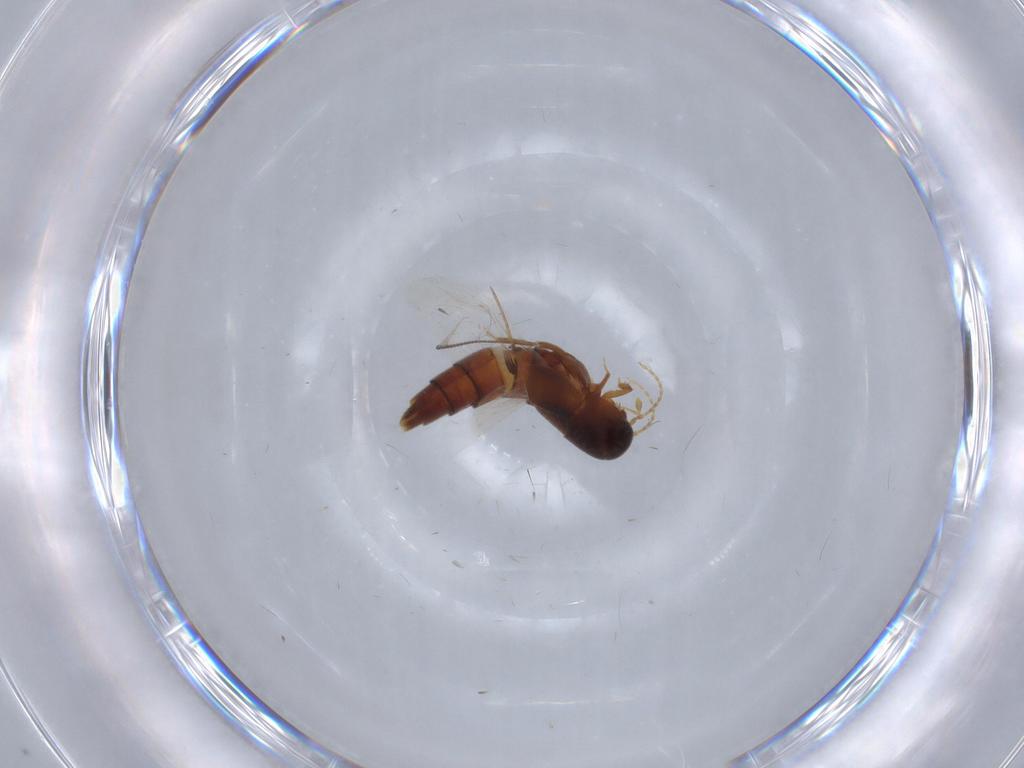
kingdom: Animalia
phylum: Arthropoda
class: Insecta
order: Coleoptera
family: Staphylinidae
